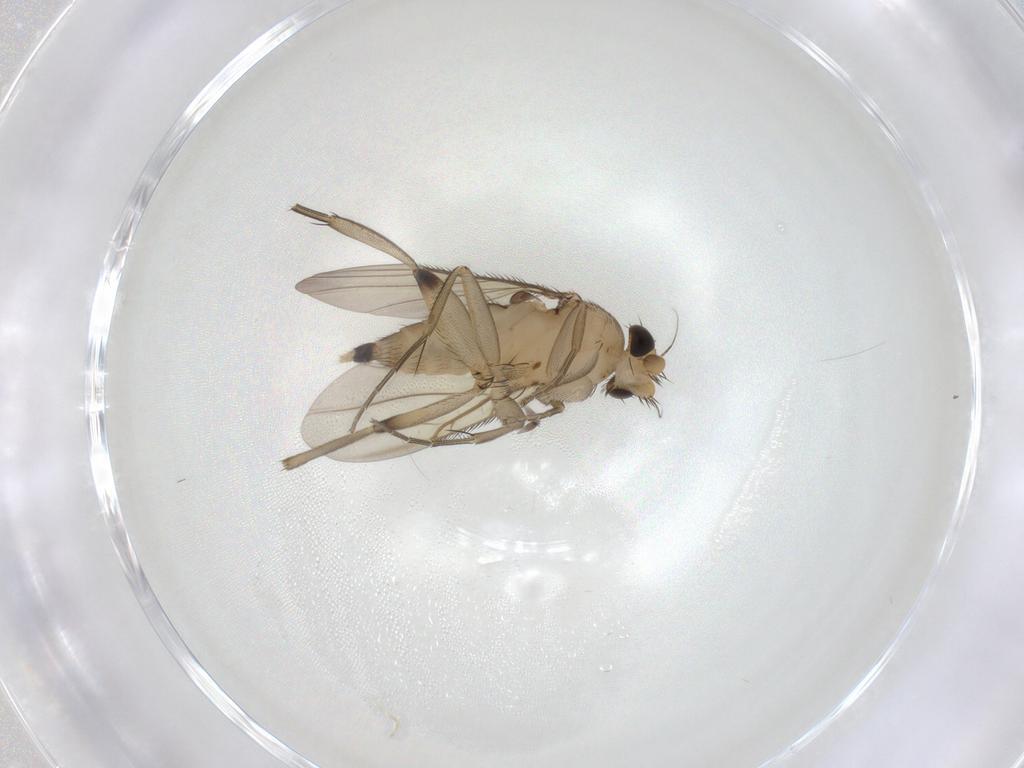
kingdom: Animalia
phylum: Arthropoda
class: Insecta
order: Diptera
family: Phoridae
